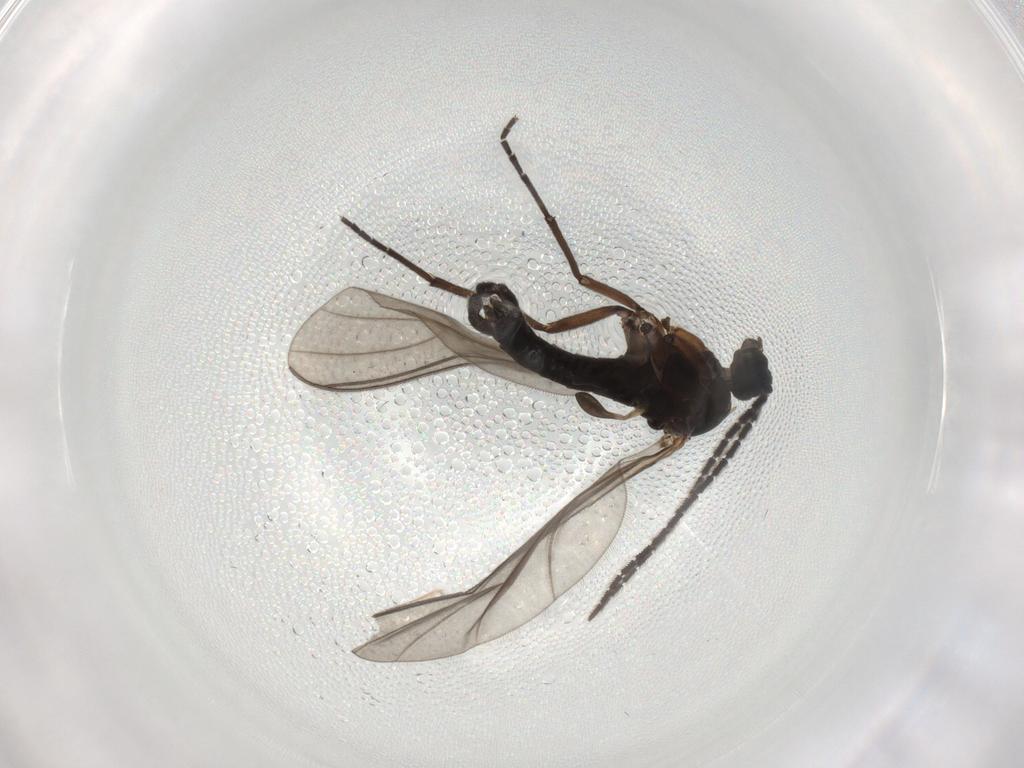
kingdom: Animalia
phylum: Arthropoda
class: Insecta
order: Diptera
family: Sciaridae
